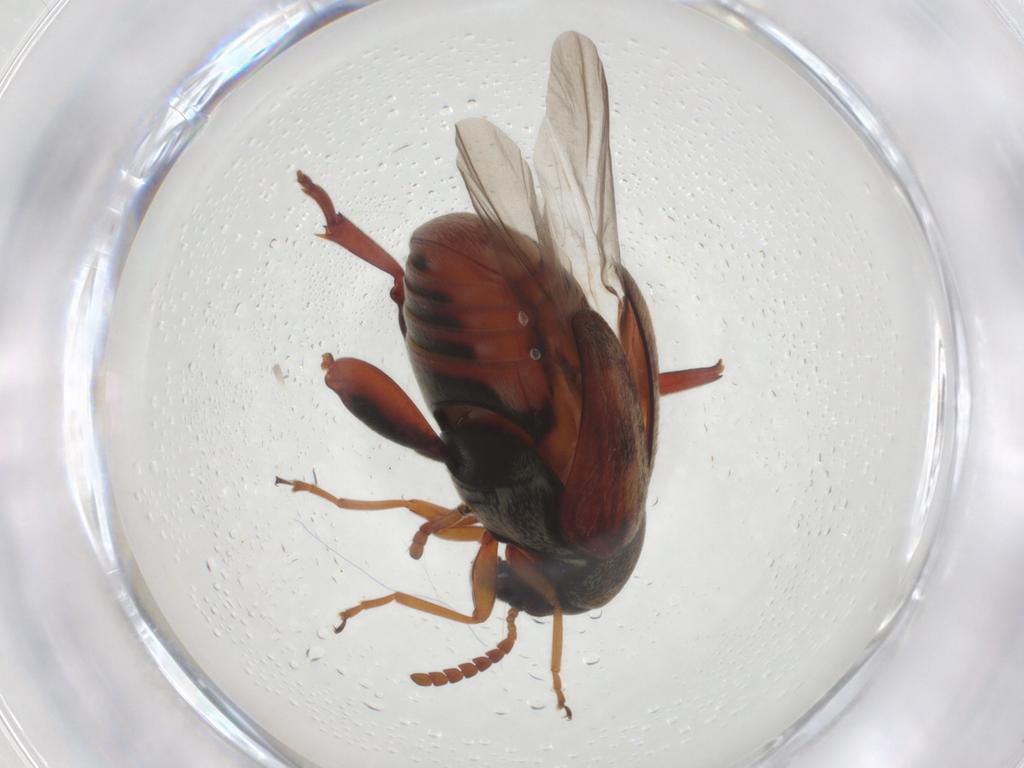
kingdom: Animalia
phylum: Arthropoda
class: Insecta
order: Coleoptera
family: Chrysomelidae
